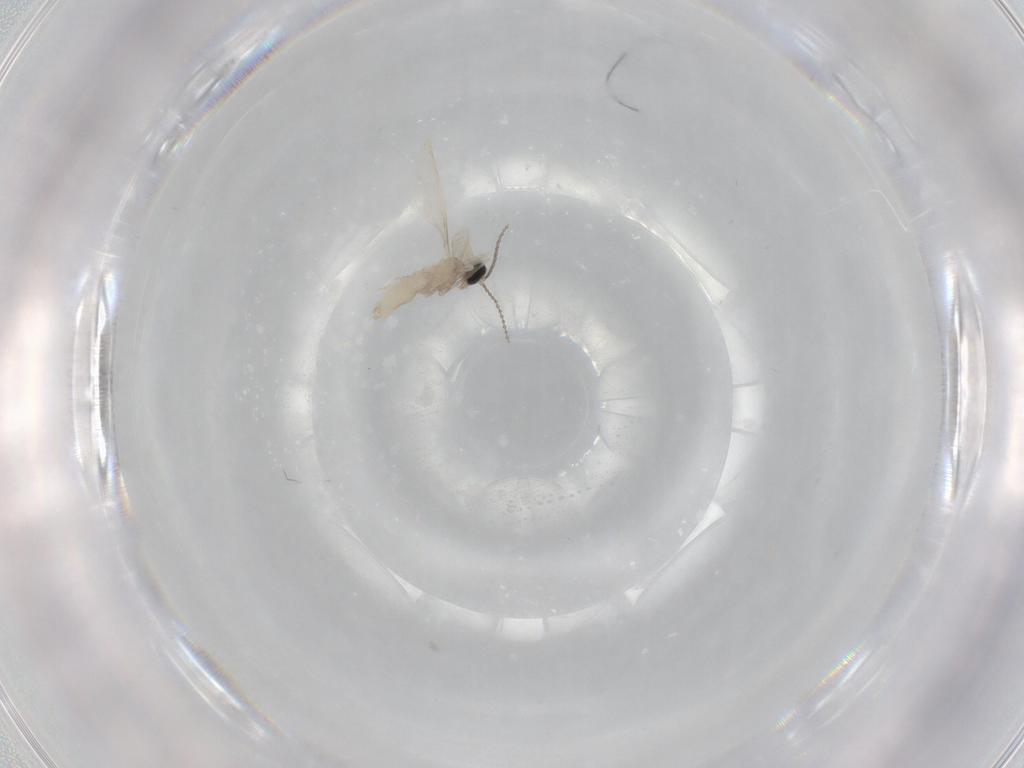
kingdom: Animalia
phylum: Arthropoda
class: Insecta
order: Diptera
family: Cecidomyiidae
